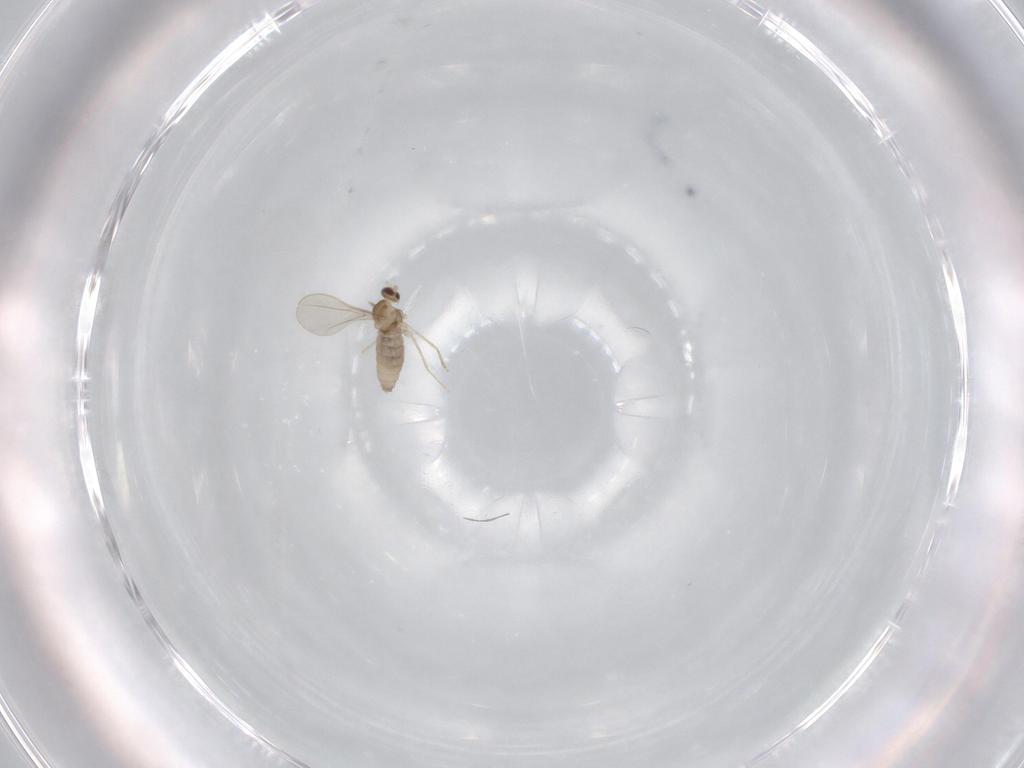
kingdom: Animalia
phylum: Arthropoda
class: Insecta
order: Diptera
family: Cecidomyiidae
